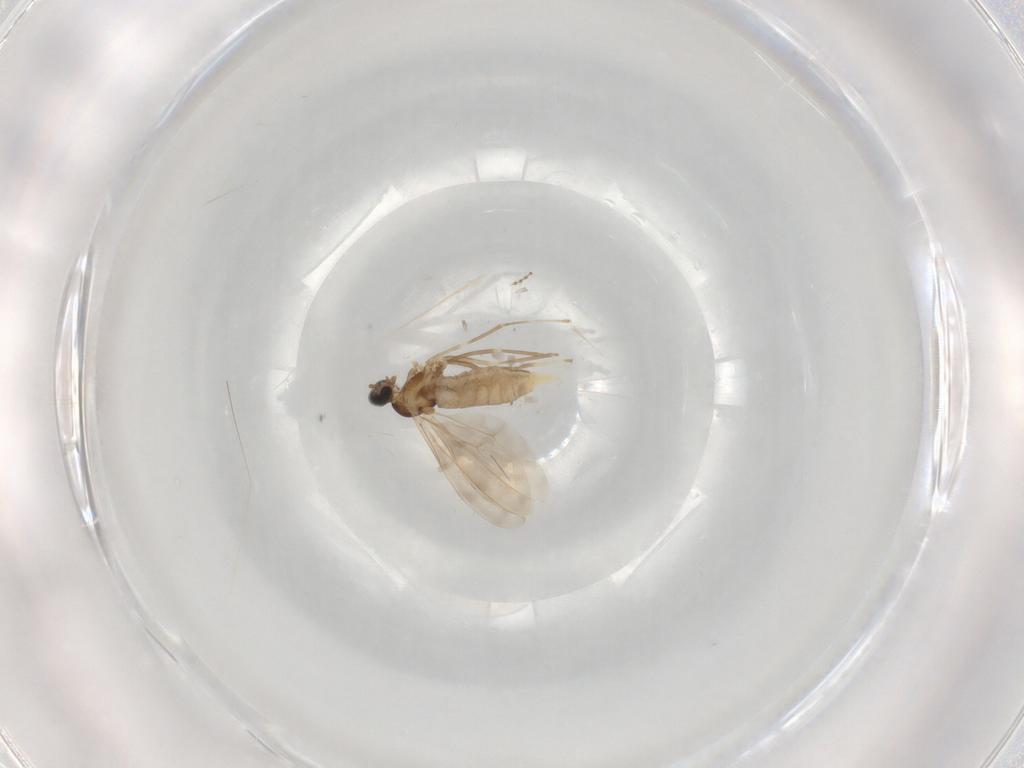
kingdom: Animalia
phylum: Arthropoda
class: Insecta
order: Diptera
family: Cecidomyiidae
